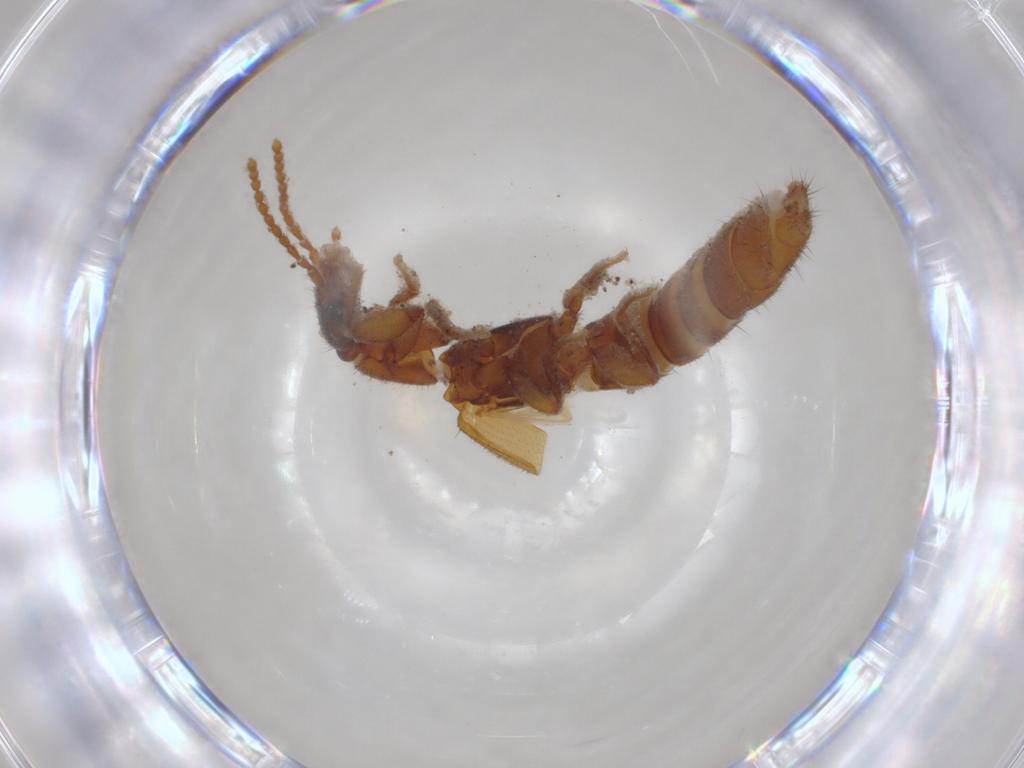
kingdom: Animalia
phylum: Arthropoda
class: Insecta
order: Coleoptera
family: Staphylinidae
